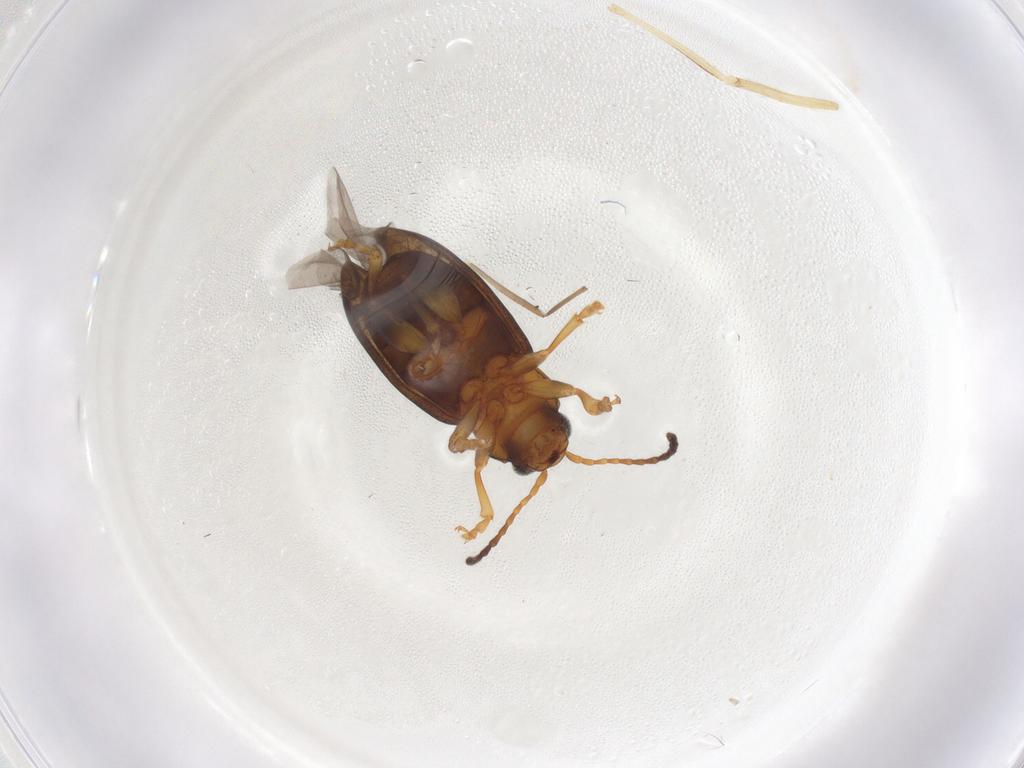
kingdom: Animalia
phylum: Arthropoda
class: Insecta
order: Coleoptera
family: Chrysomelidae
